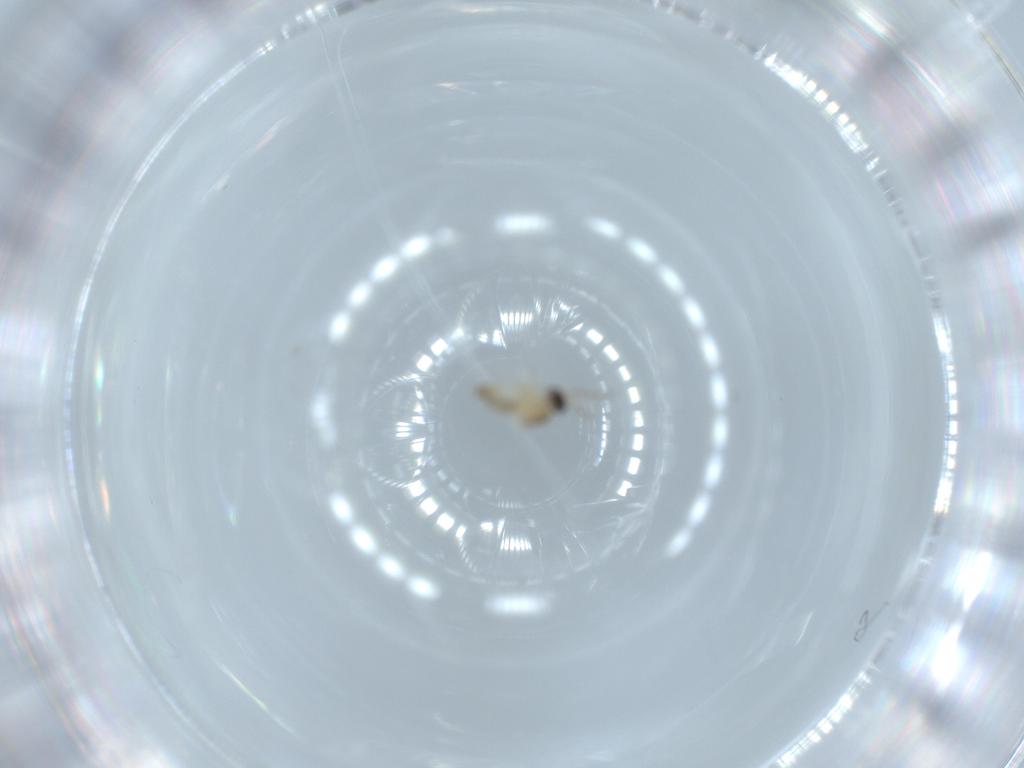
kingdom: Animalia
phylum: Arthropoda
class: Insecta
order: Diptera
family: Cecidomyiidae
